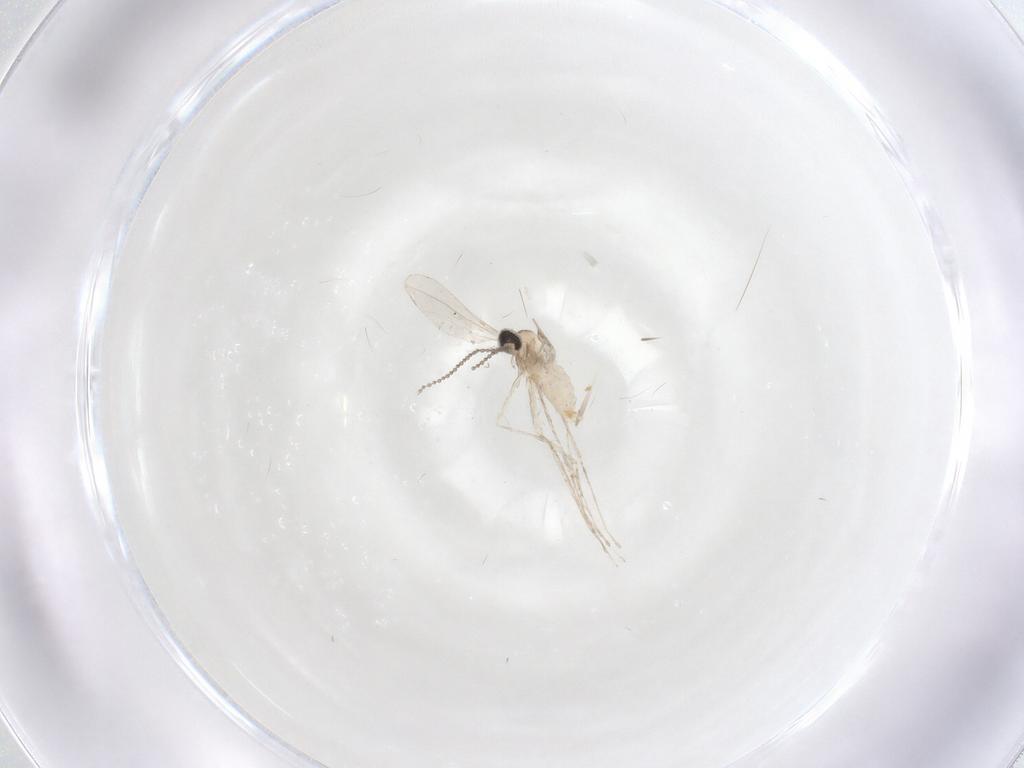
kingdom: Animalia
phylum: Arthropoda
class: Insecta
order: Diptera
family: Cecidomyiidae
